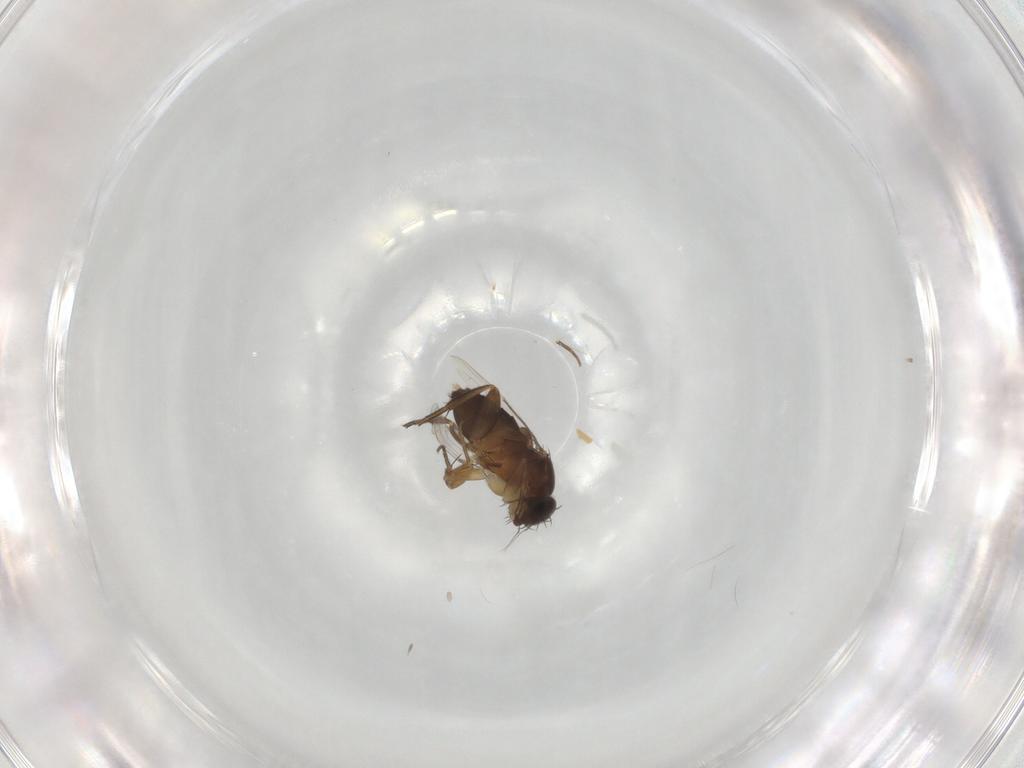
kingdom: Animalia
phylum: Arthropoda
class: Insecta
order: Diptera
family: Phoridae
